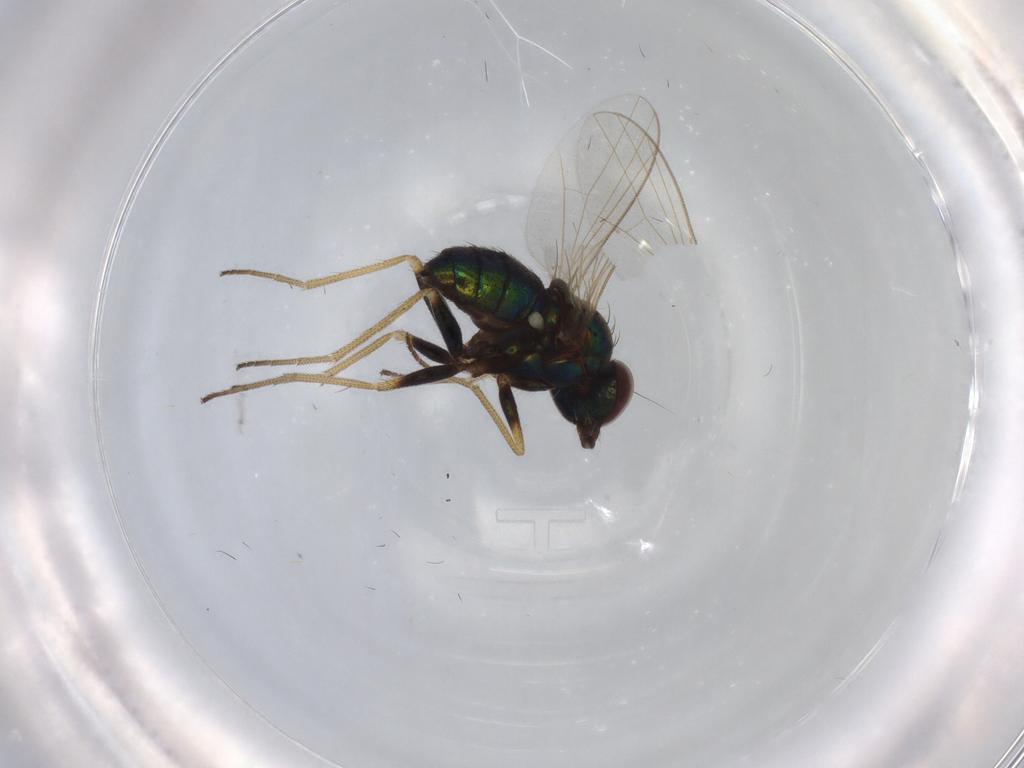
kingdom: Animalia
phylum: Arthropoda
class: Insecta
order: Diptera
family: Dolichopodidae
